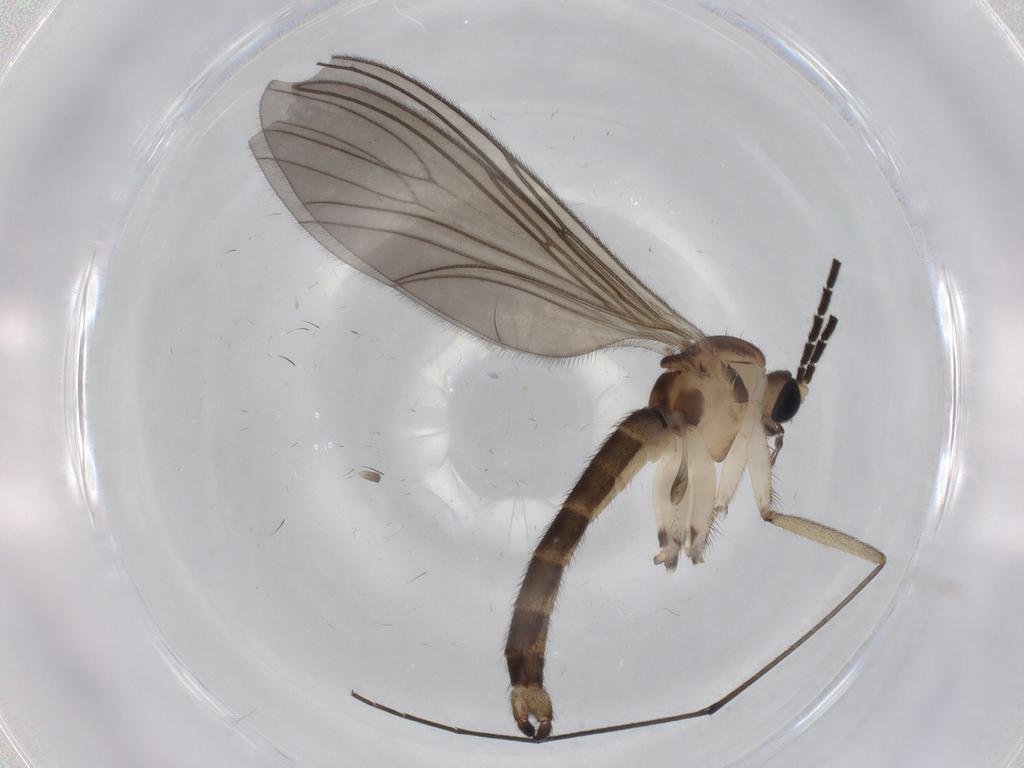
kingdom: Animalia
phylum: Arthropoda
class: Insecta
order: Diptera
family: Sciaridae
